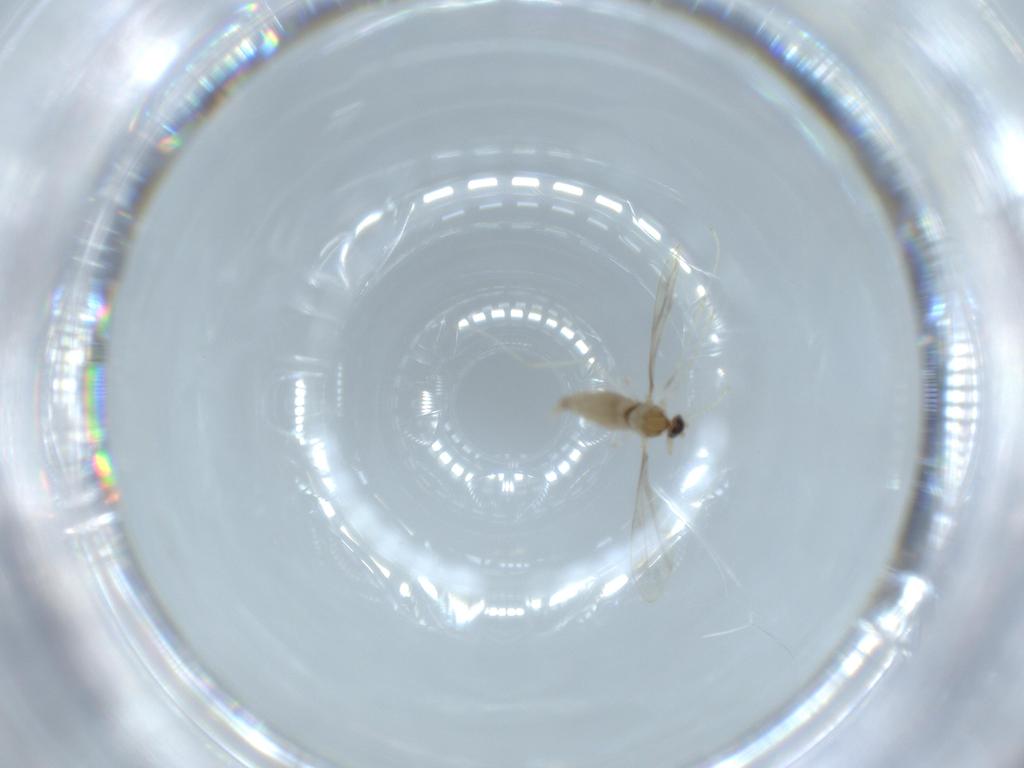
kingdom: Animalia
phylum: Arthropoda
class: Insecta
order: Diptera
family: Cecidomyiidae
